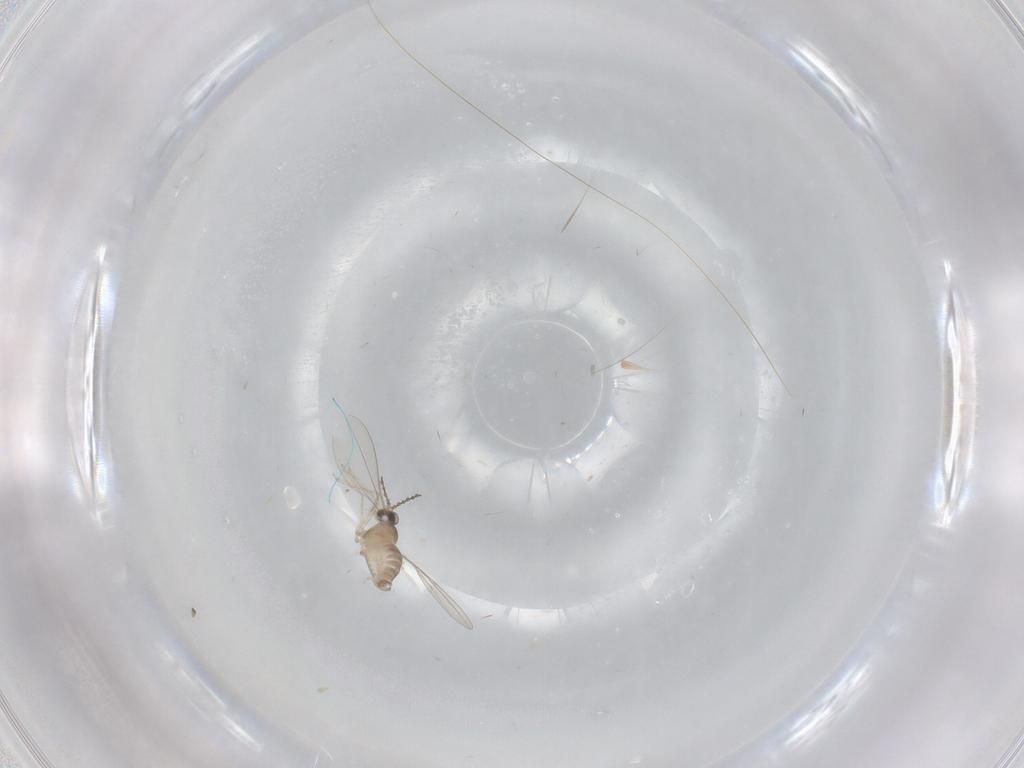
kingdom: Animalia
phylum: Arthropoda
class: Insecta
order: Diptera
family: Cecidomyiidae
